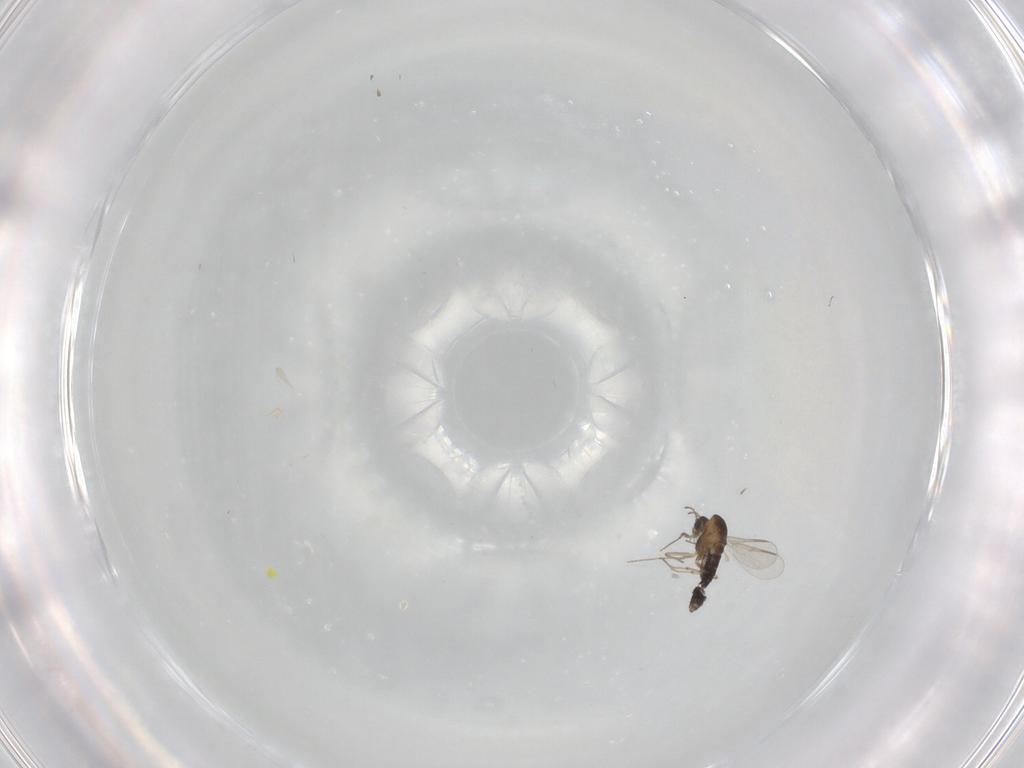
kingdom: Animalia
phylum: Arthropoda
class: Insecta
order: Diptera
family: Chironomidae
